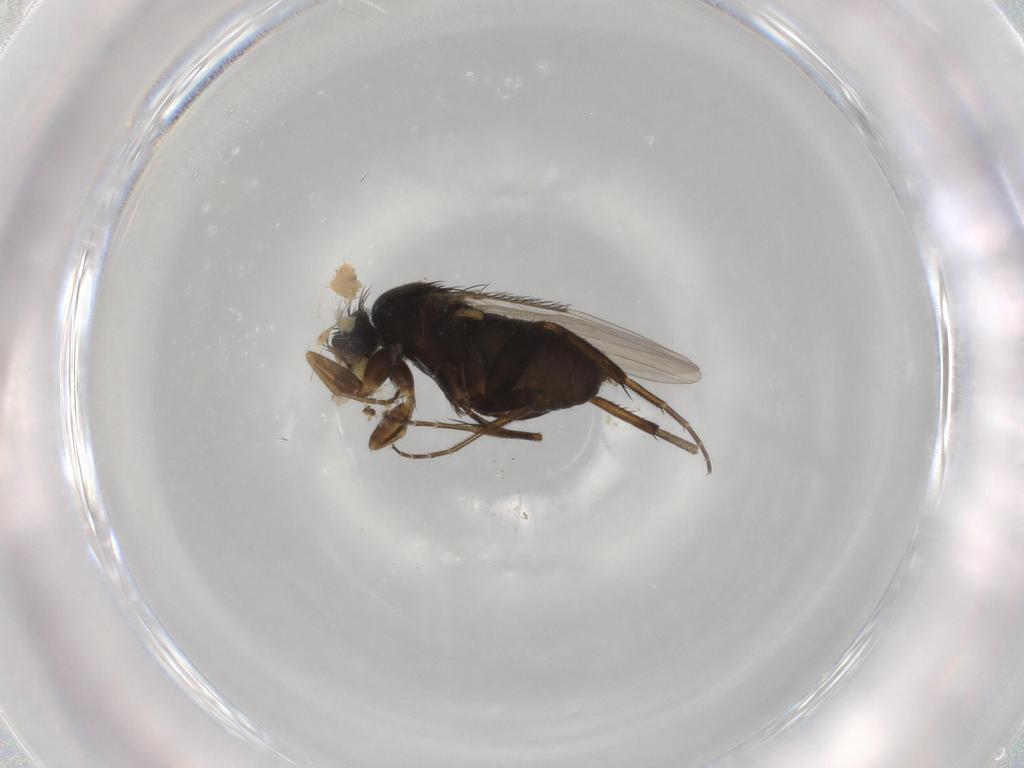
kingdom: Animalia
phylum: Arthropoda
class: Insecta
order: Diptera
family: Phoridae
